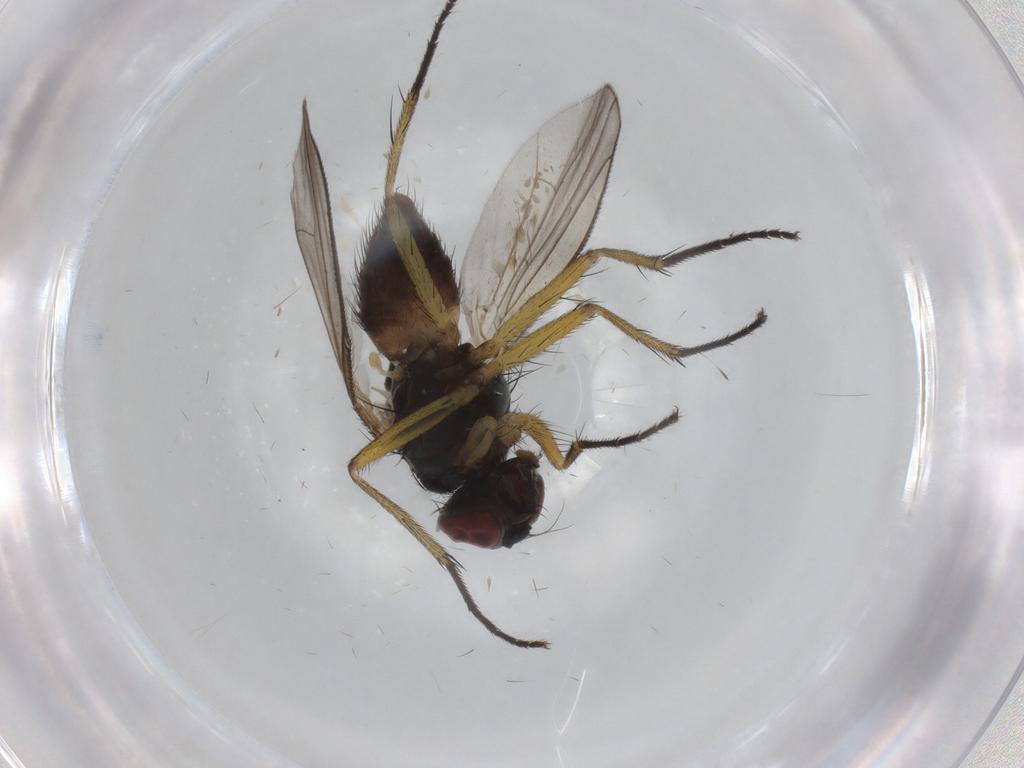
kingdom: Animalia
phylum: Arthropoda
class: Insecta
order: Diptera
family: Muscidae
